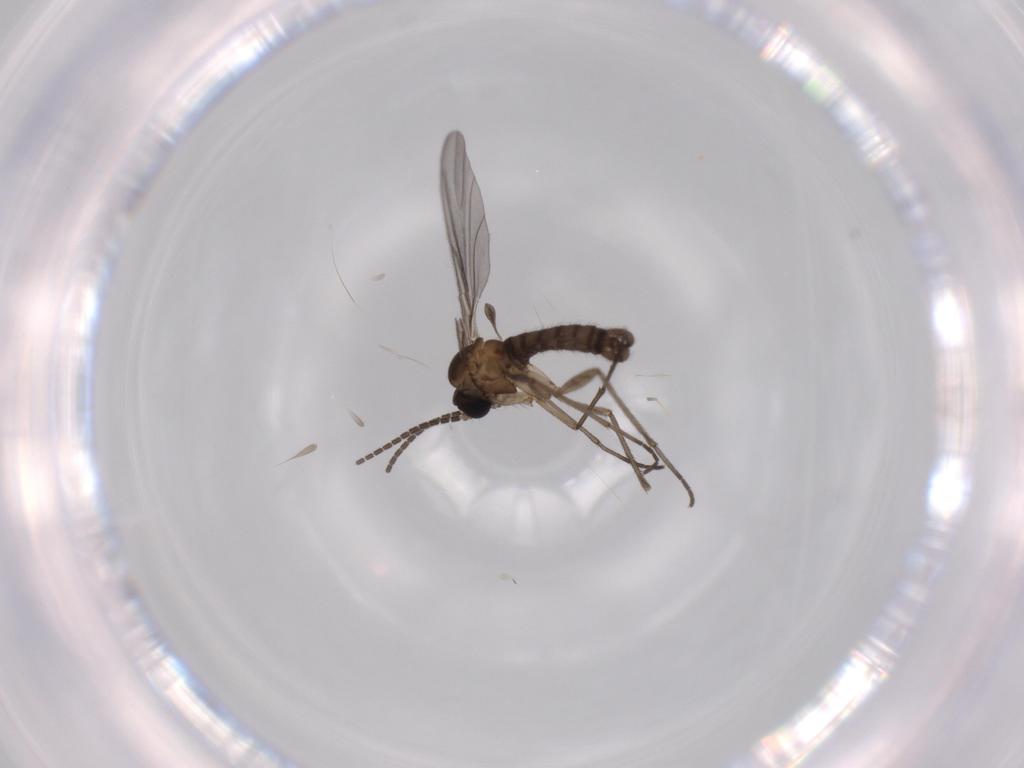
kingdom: Animalia
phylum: Arthropoda
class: Insecta
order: Diptera
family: Sciaridae
